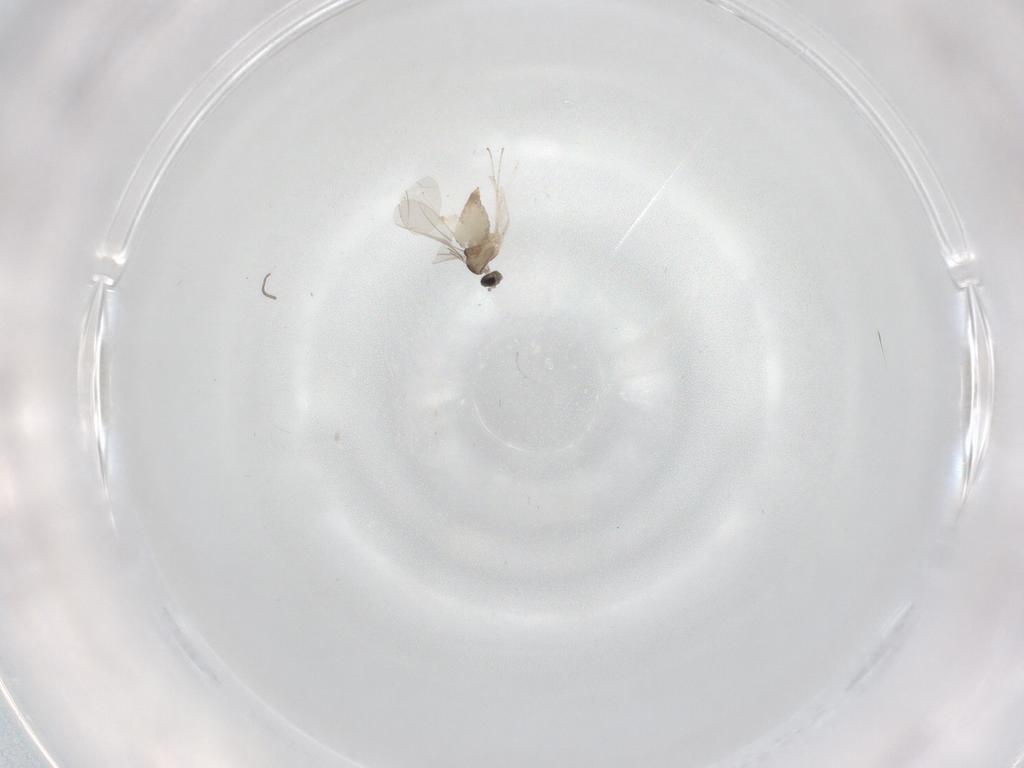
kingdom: Animalia
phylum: Arthropoda
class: Insecta
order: Diptera
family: Cecidomyiidae
